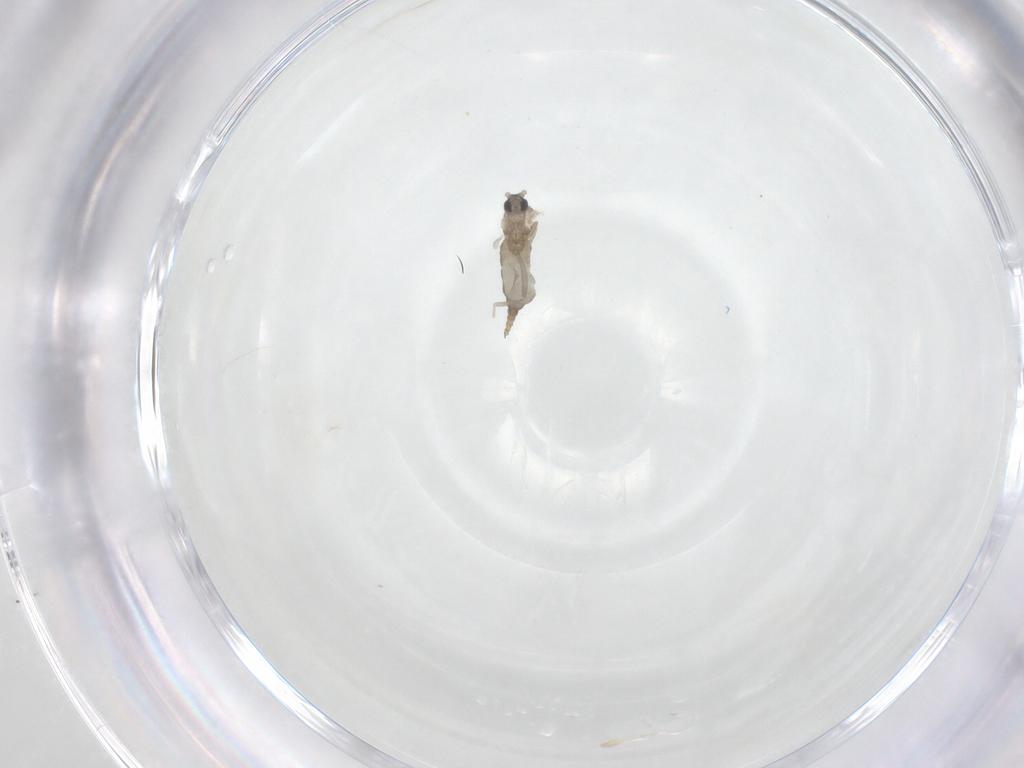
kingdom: Animalia
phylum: Arthropoda
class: Insecta
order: Diptera
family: Cecidomyiidae
